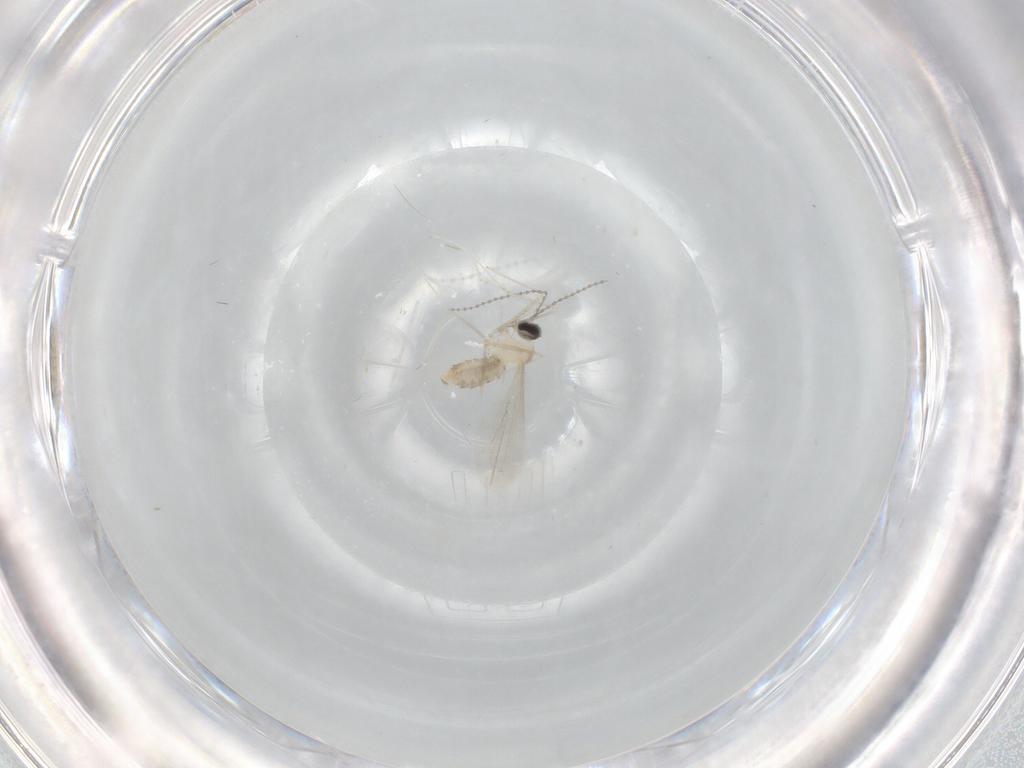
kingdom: Animalia
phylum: Arthropoda
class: Insecta
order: Diptera
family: Cecidomyiidae
